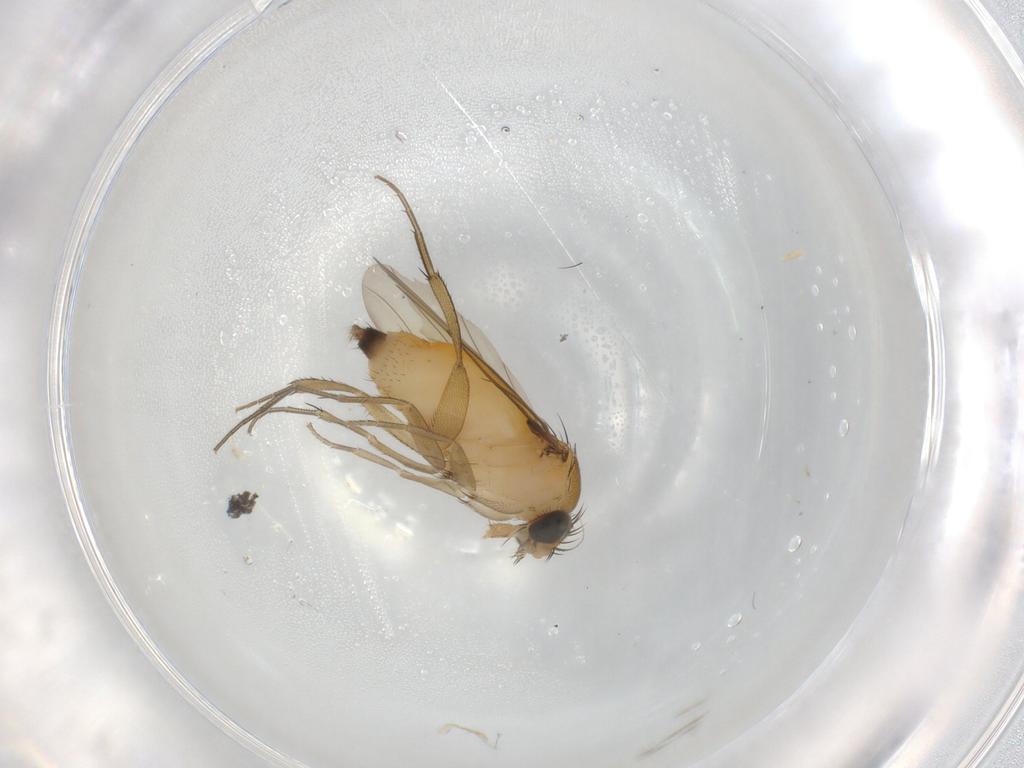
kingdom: Animalia
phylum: Arthropoda
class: Insecta
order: Diptera
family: Phoridae
